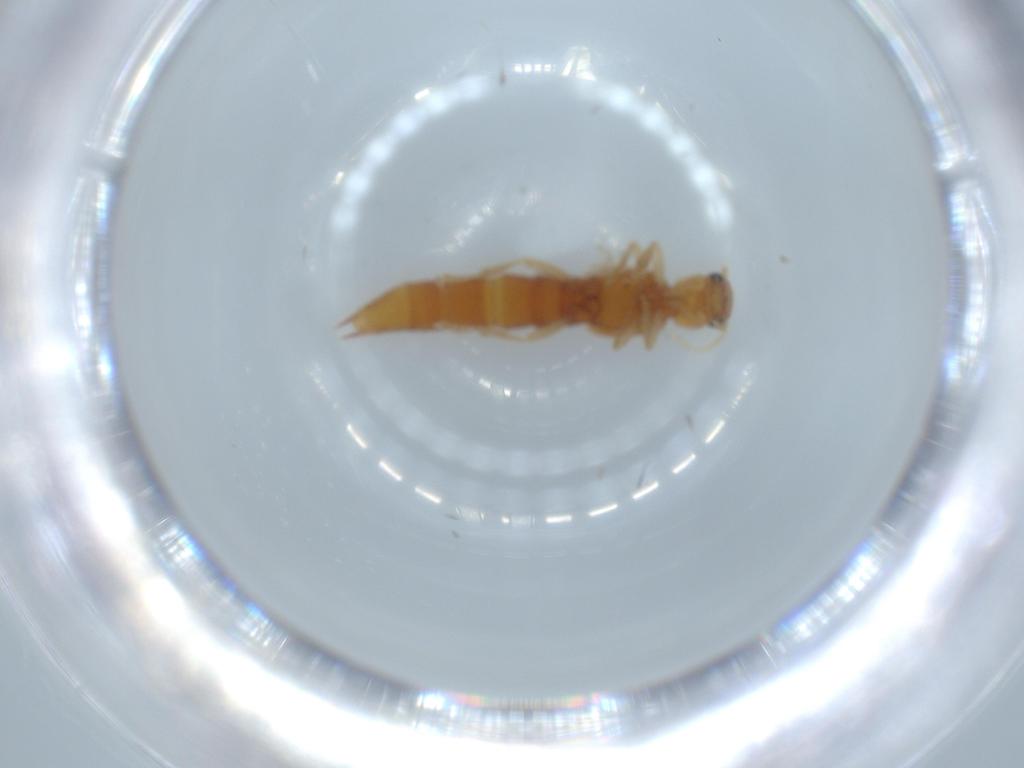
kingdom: Animalia
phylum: Arthropoda
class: Insecta
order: Coleoptera
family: Staphylinidae
